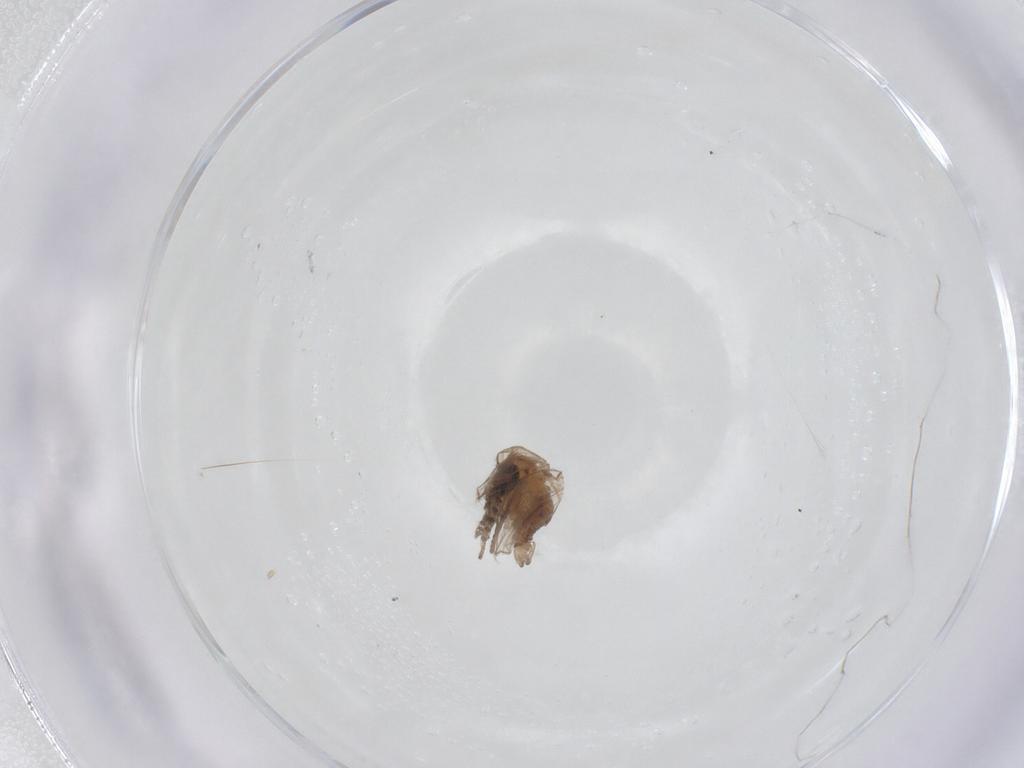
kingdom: Animalia
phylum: Arthropoda
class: Insecta
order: Diptera
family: Psychodidae
